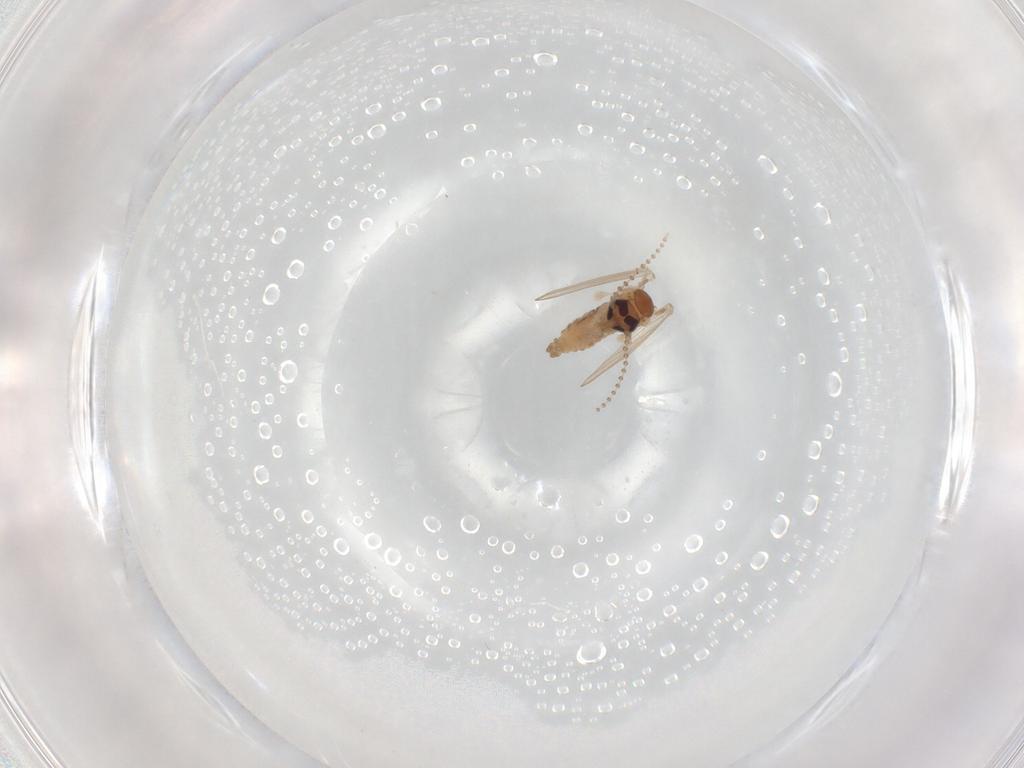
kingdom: Animalia
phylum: Arthropoda
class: Insecta
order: Diptera
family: Psychodidae
